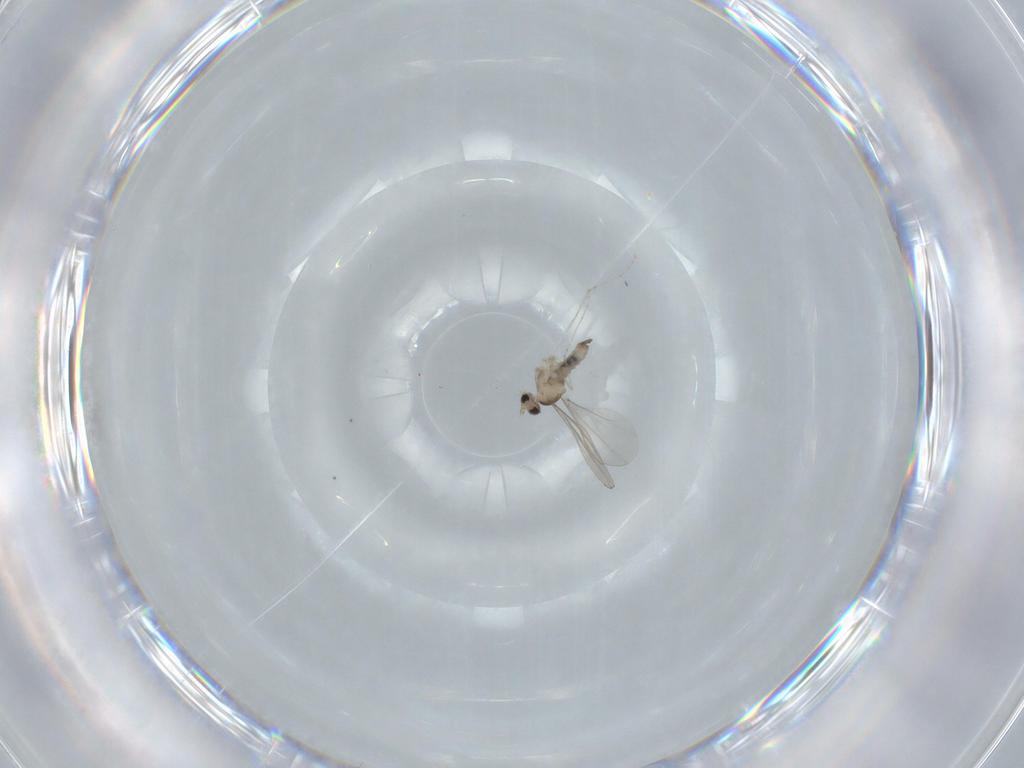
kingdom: Animalia
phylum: Arthropoda
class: Insecta
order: Diptera
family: Cecidomyiidae
